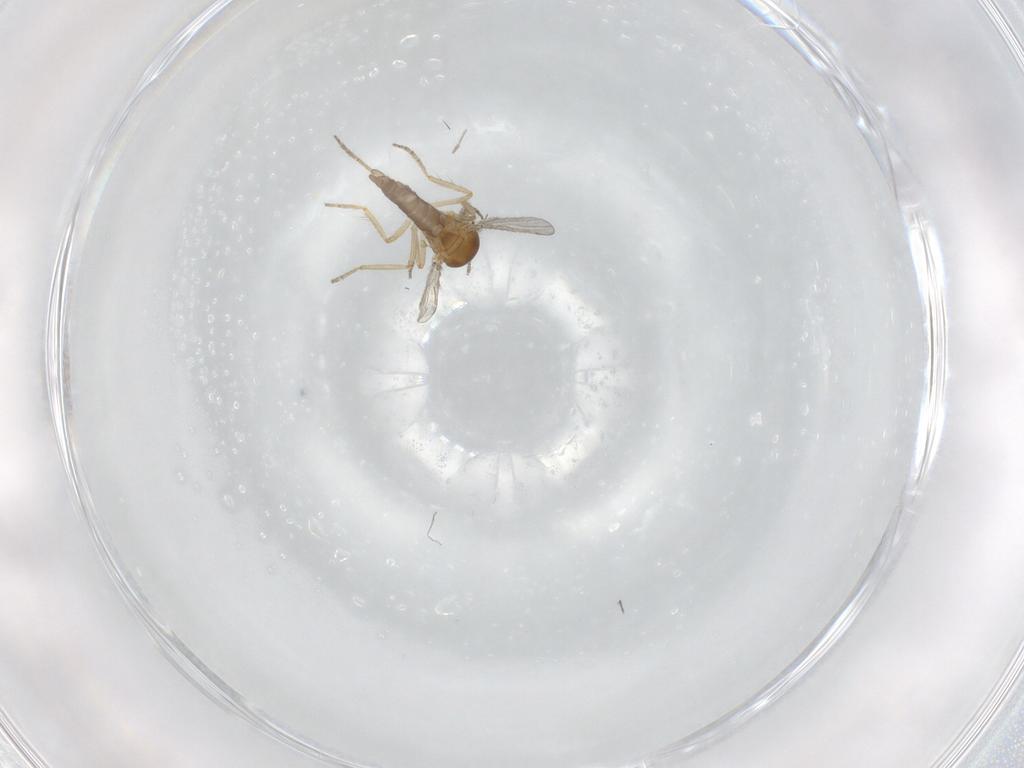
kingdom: Animalia
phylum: Arthropoda
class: Insecta
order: Diptera
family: Ceratopogonidae
